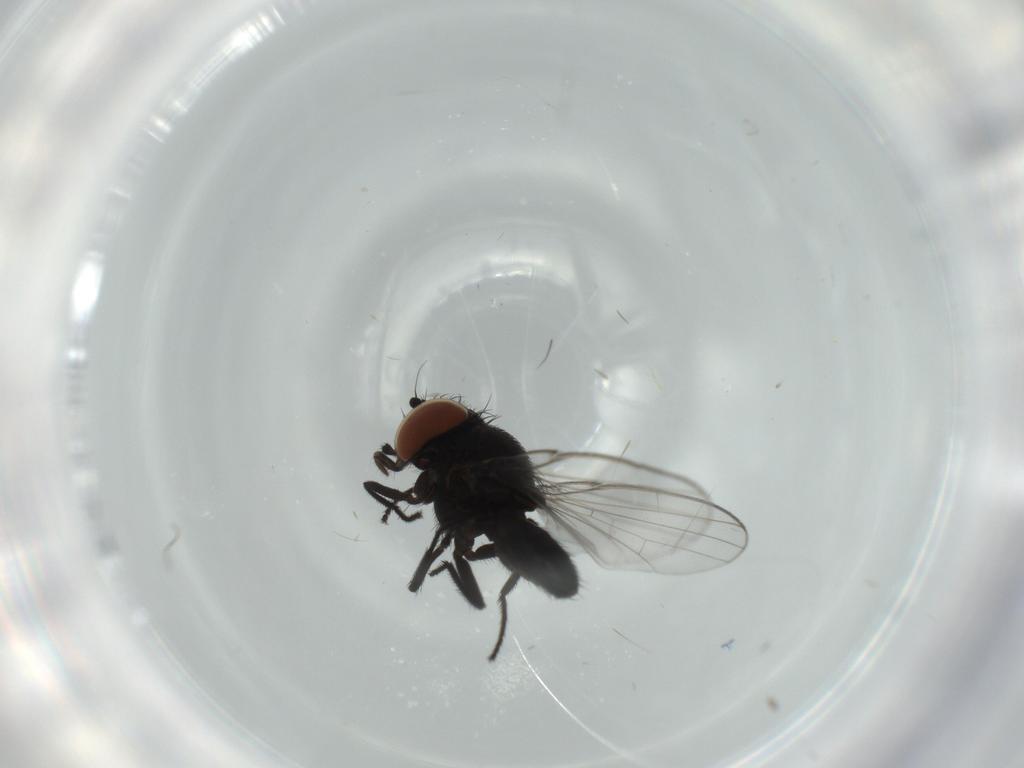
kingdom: Animalia
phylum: Arthropoda
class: Insecta
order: Diptera
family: Milichiidae
